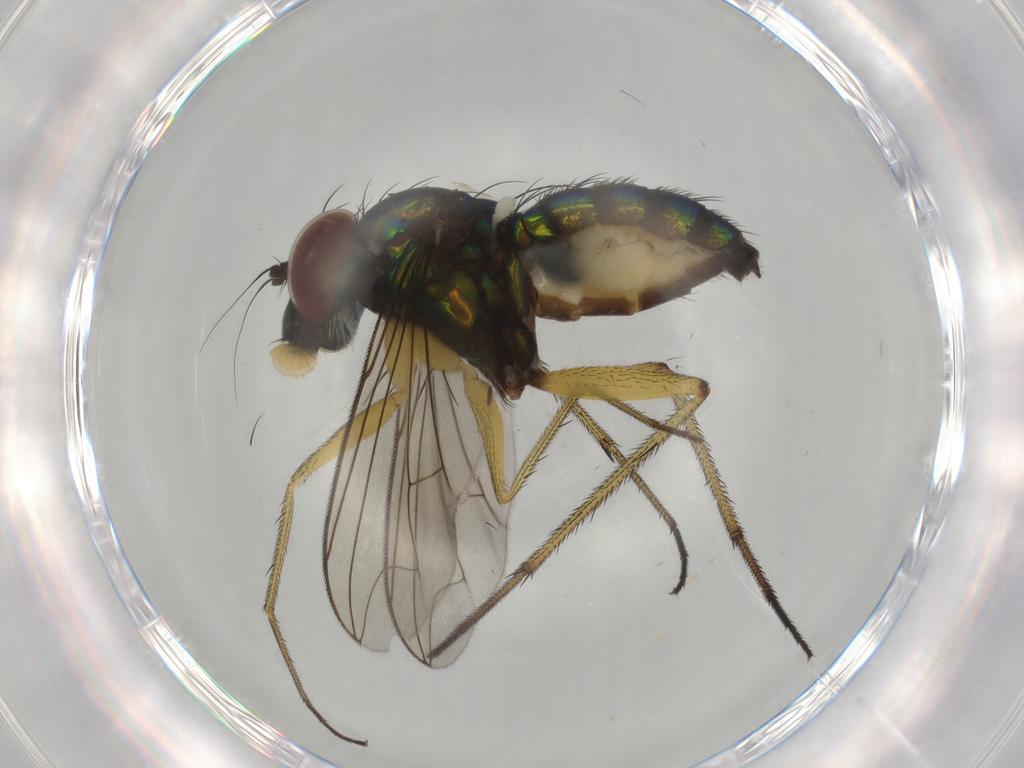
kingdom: Animalia
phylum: Arthropoda
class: Insecta
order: Diptera
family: Dolichopodidae
